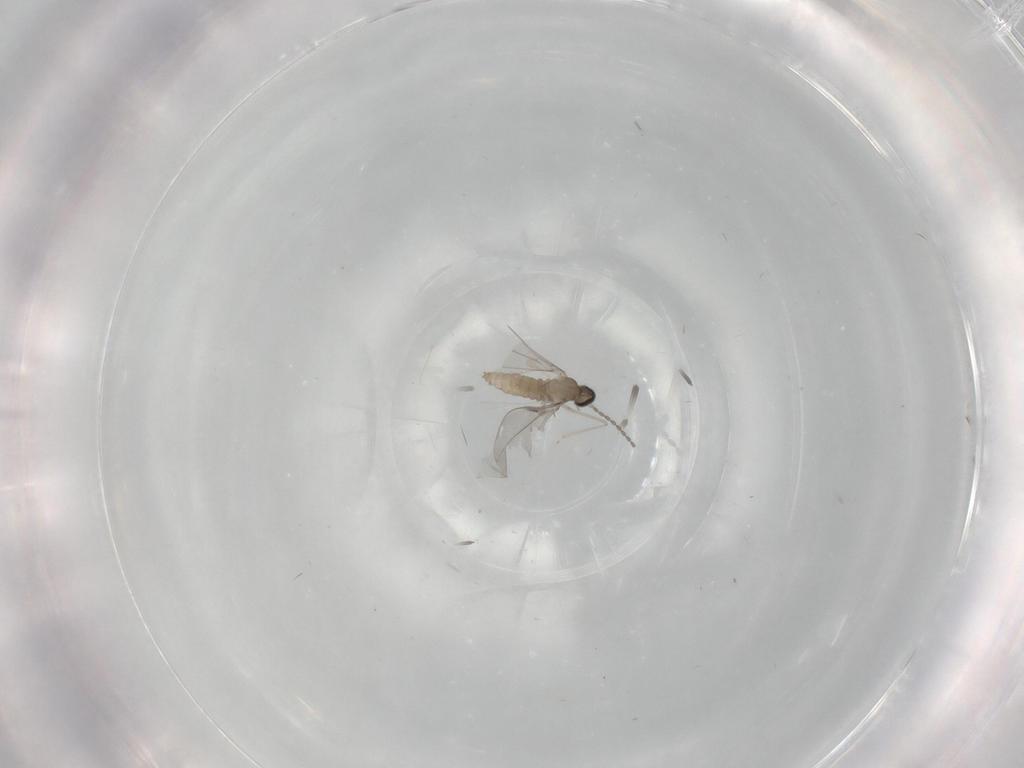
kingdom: Animalia
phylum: Arthropoda
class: Insecta
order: Diptera
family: Cecidomyiidae
